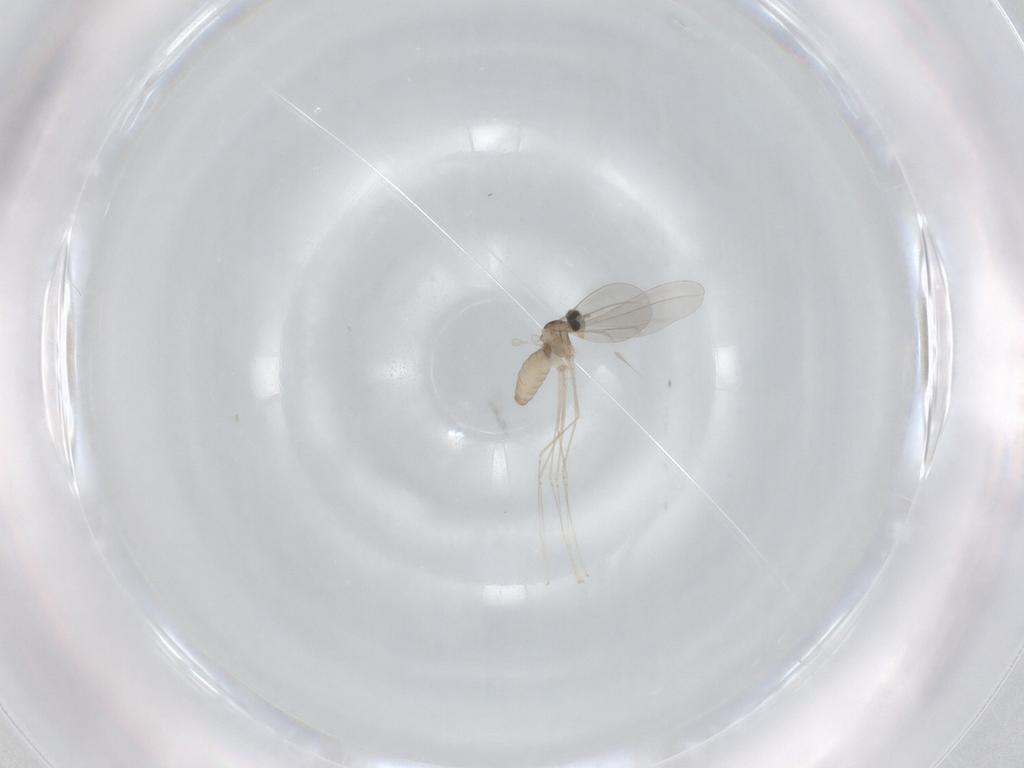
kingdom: Animalia
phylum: Arthropoda
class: Insecta
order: Diptera
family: Cecidomyiidae
